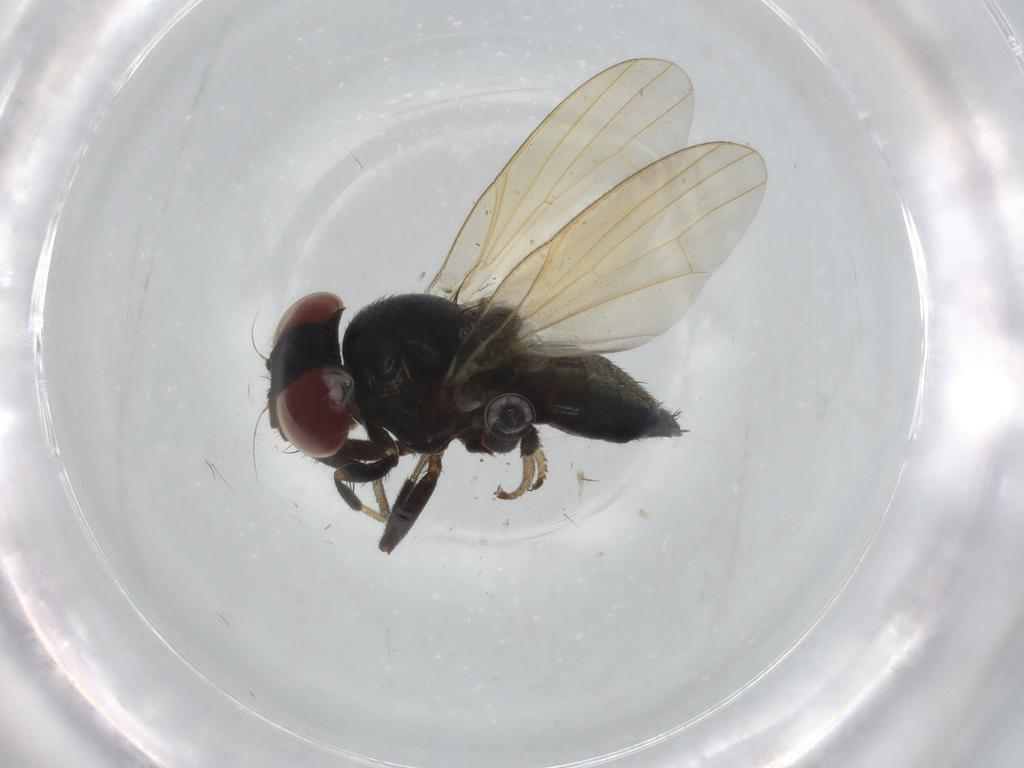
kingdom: Animalia
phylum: Arthropoda
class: Insecta
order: Diptera
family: Lonchaeidae
